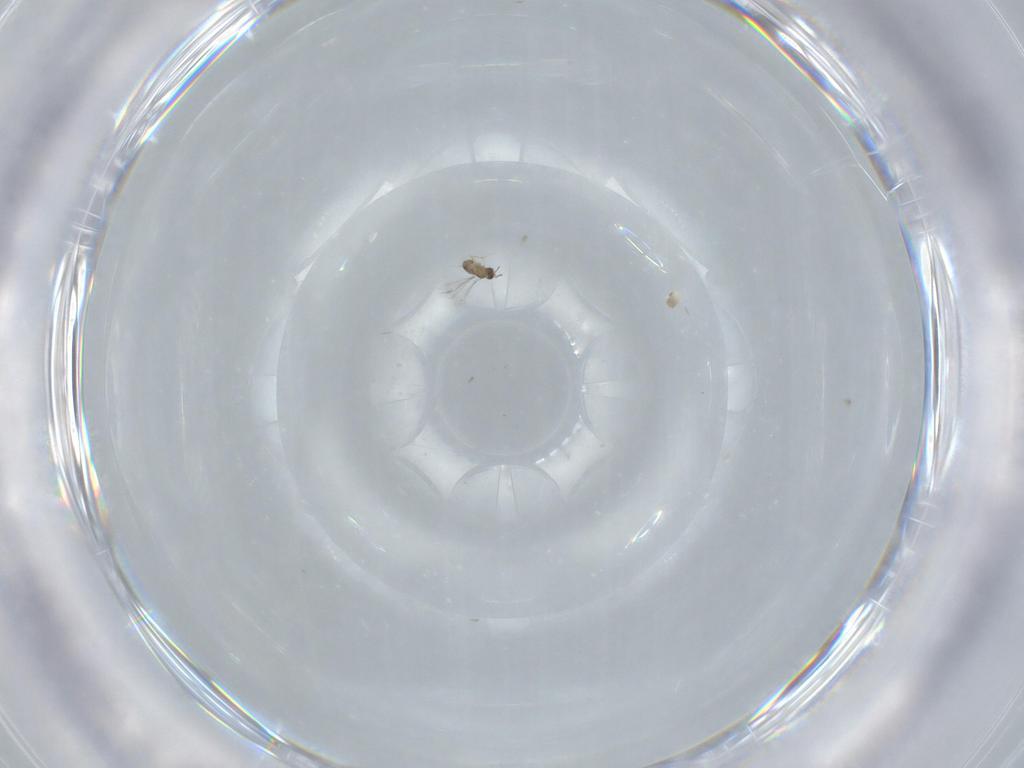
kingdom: Animalia
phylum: Arthropoda
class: Insecta
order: Hymenoptera
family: Mymaridae
